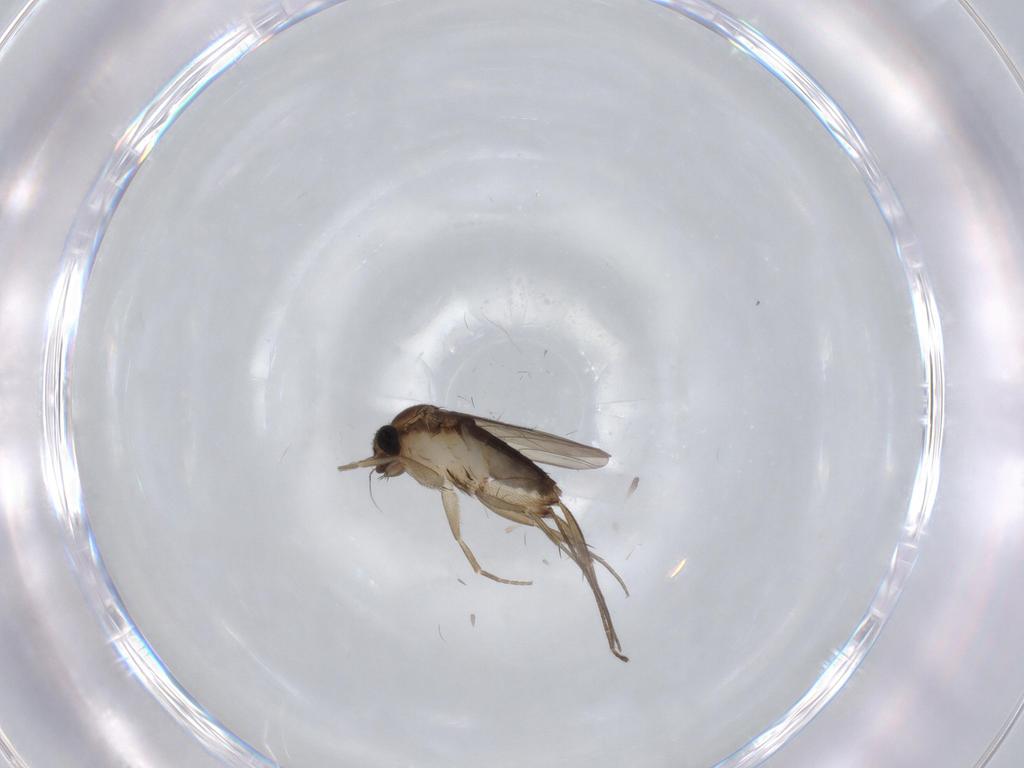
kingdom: Animalia
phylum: Arthropoda
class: Insecta
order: Diptera
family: Phoridae
